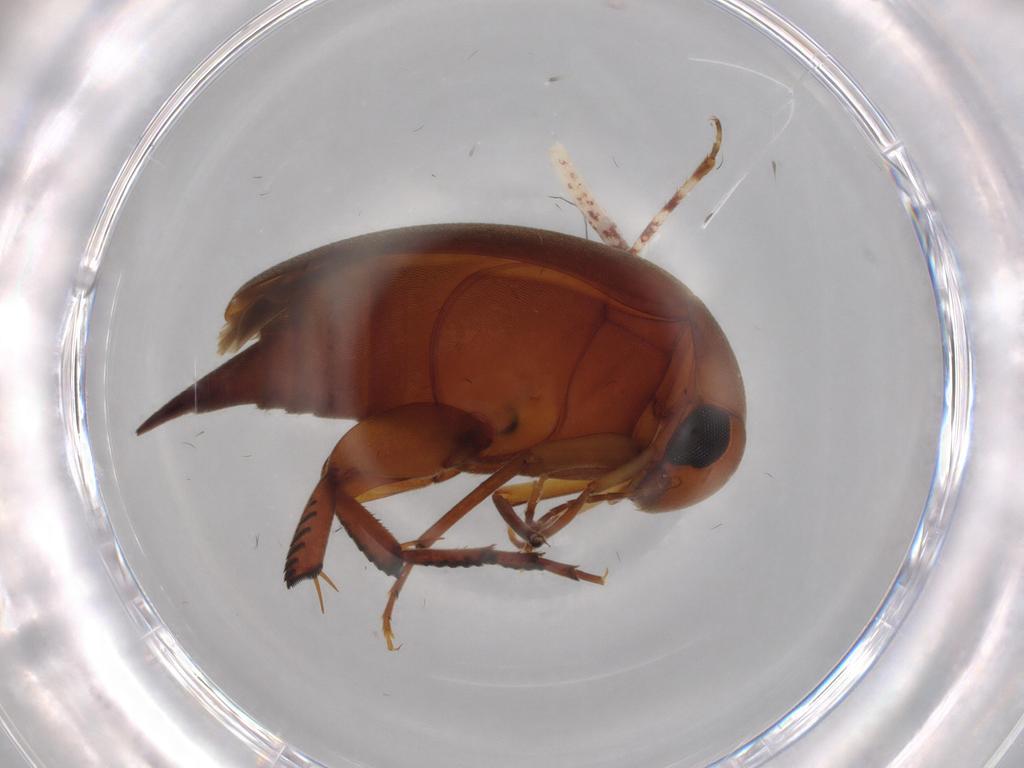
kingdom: Animalia
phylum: Arthropoda
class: Insecta
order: Coleoptera
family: Mordellidae
